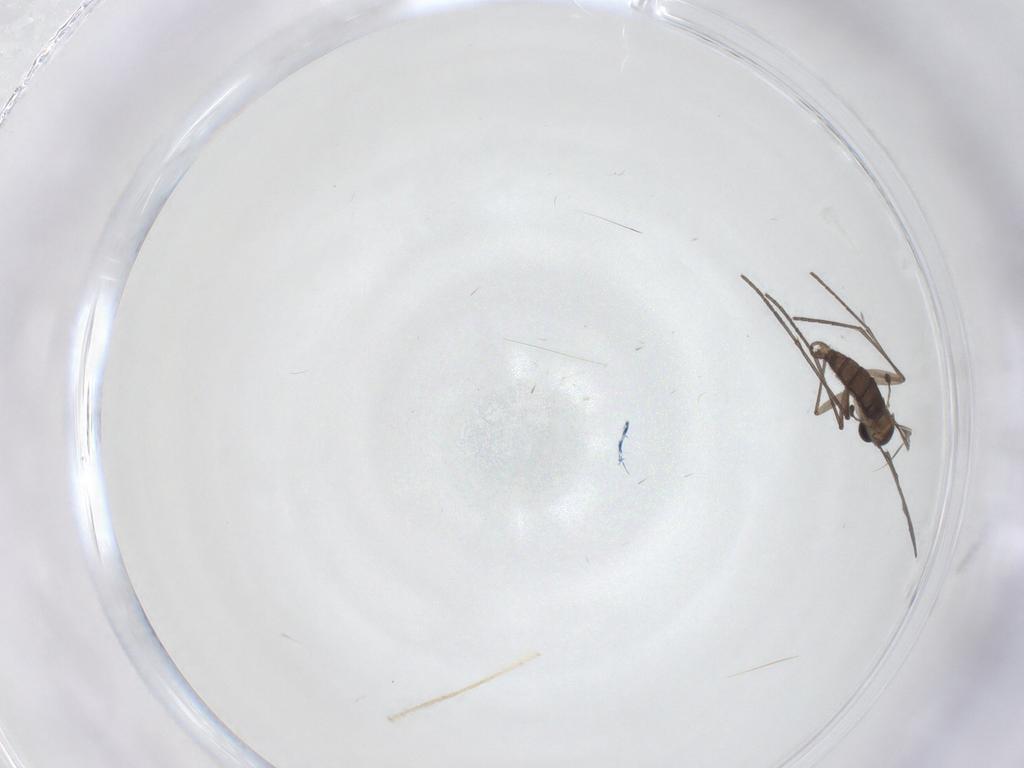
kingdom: Animalia
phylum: Arthropoda
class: Insecta
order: Diptera
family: Sciaridae
